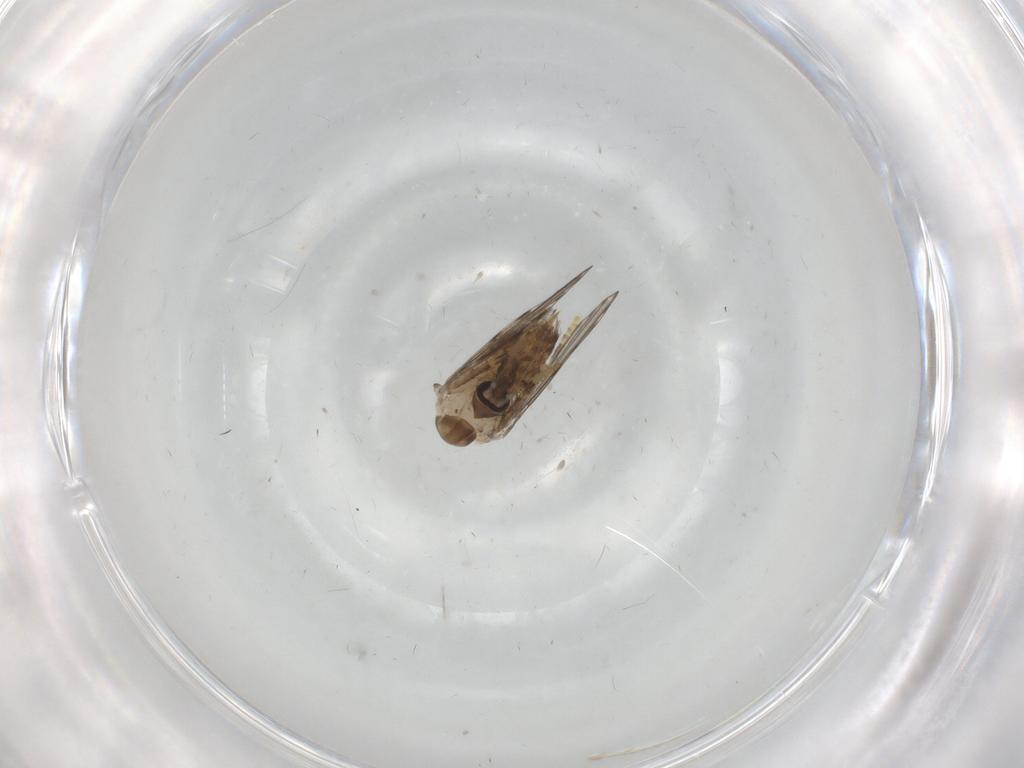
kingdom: Animalia
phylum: Arthropoda
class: Insecta
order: Diptera
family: Psychodidae
